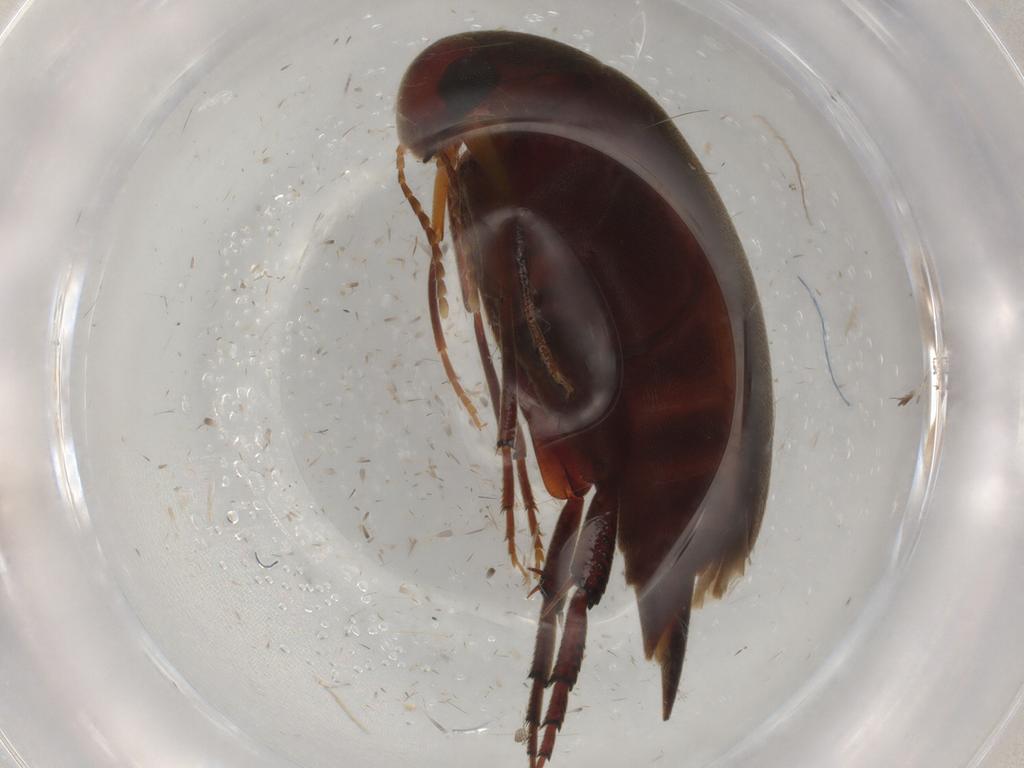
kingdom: Animalia
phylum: Arthropoda
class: Insecta
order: Coleoptera
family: Mordellidae
